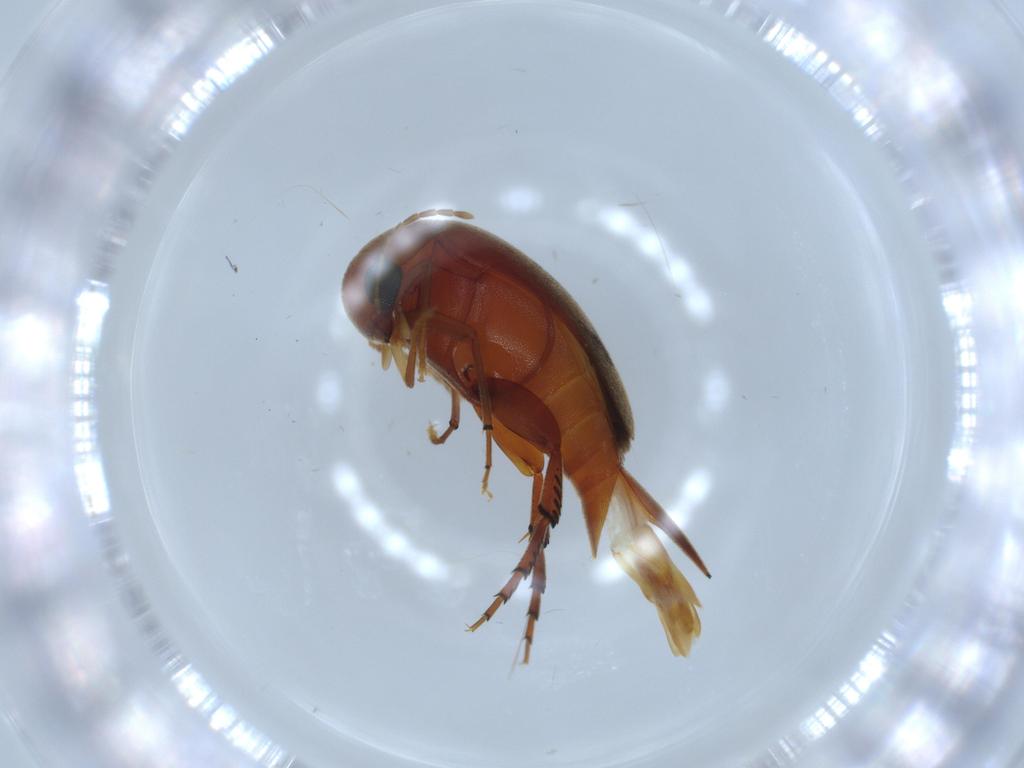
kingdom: Animalia
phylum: Arthropoda
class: Insecta
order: Coleoptera
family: Mordellidae
